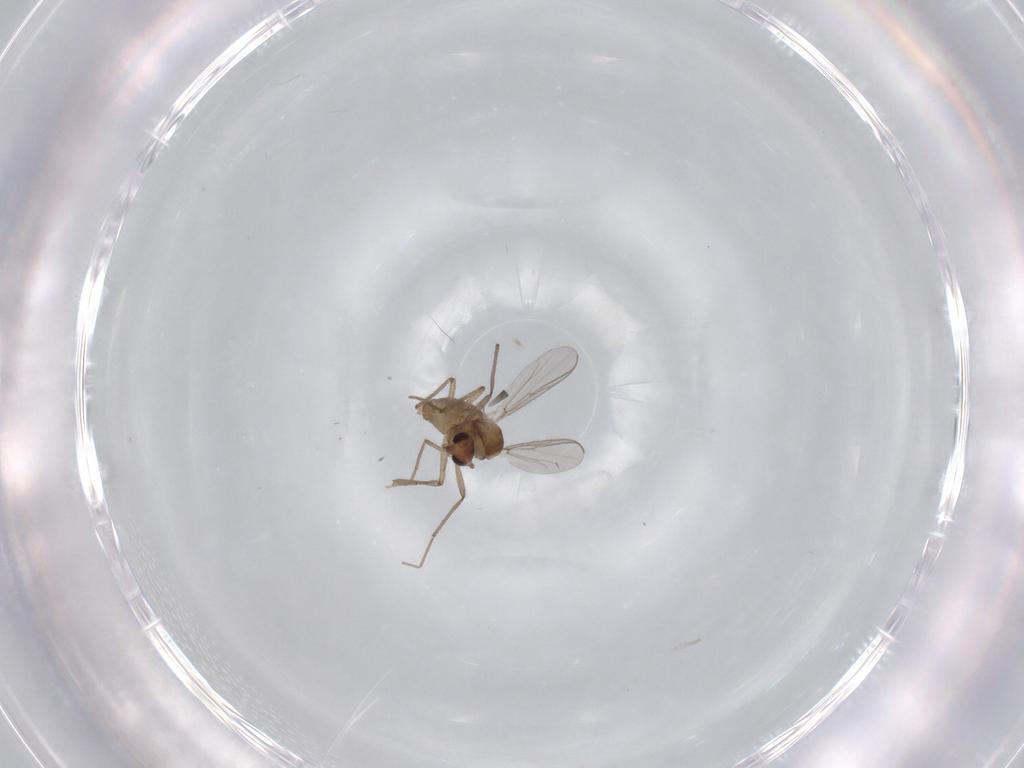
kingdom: Animalia
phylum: Arthropoda
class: Insecta
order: Diptera
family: Chironomidae
